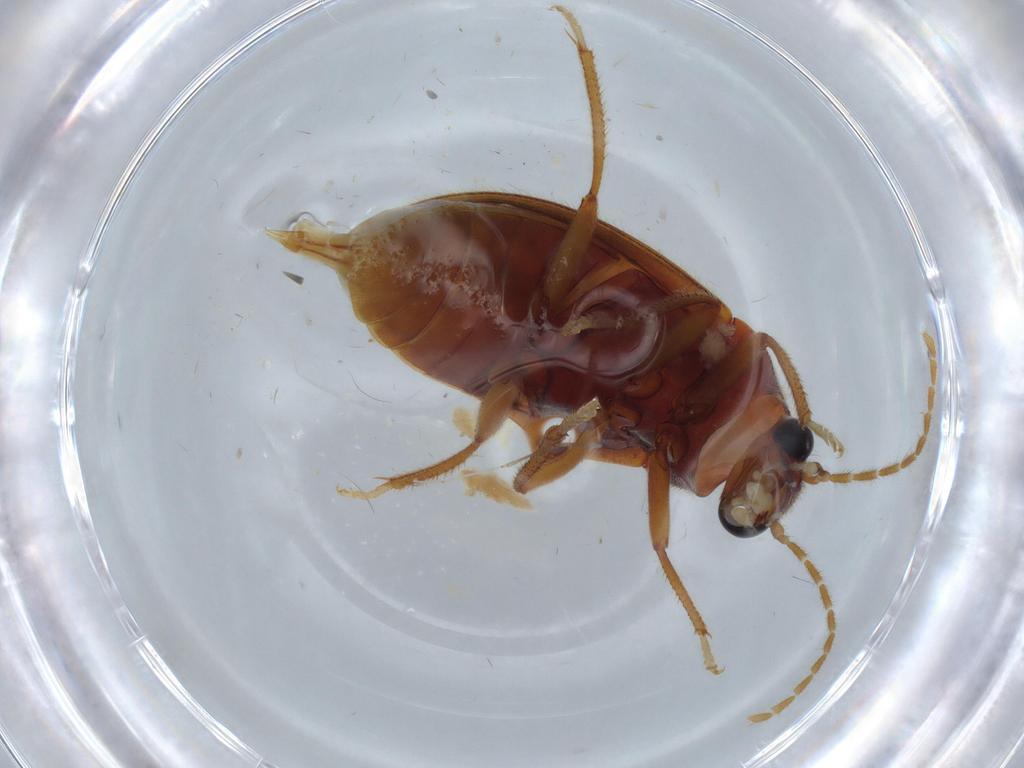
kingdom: Animalia
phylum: Arthropoda
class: Insecta
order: Coleoptera
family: Ptilodactylidae
